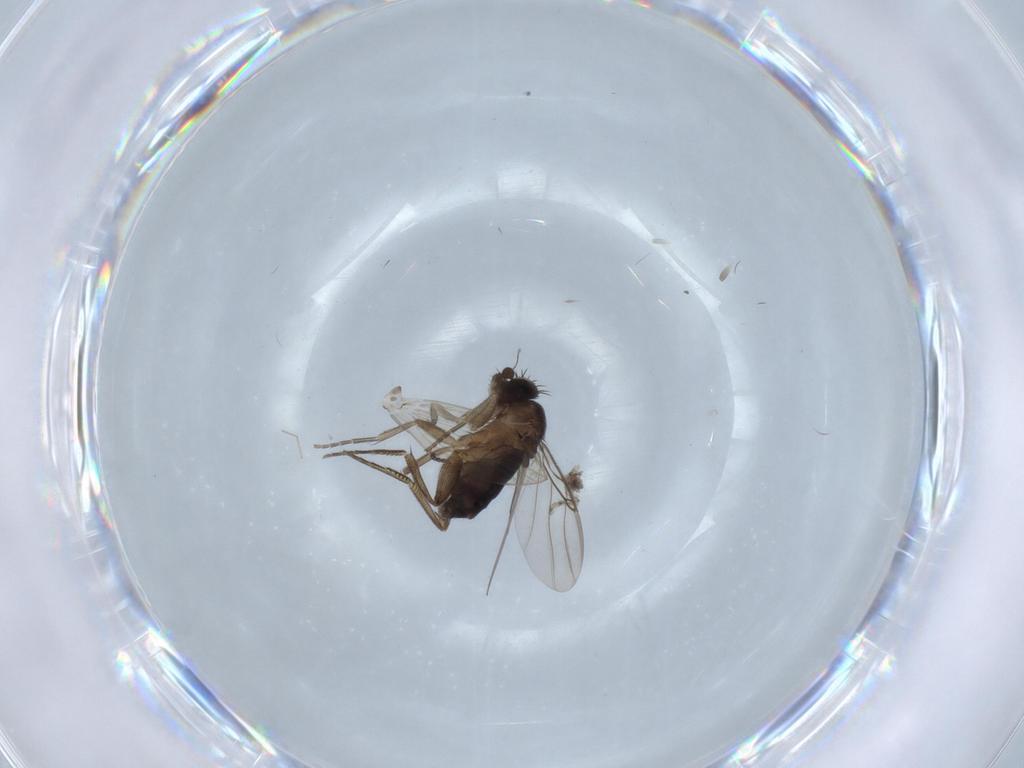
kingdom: Animalia
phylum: Arthropoda
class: Insecta
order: Diptera
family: Phoridae
